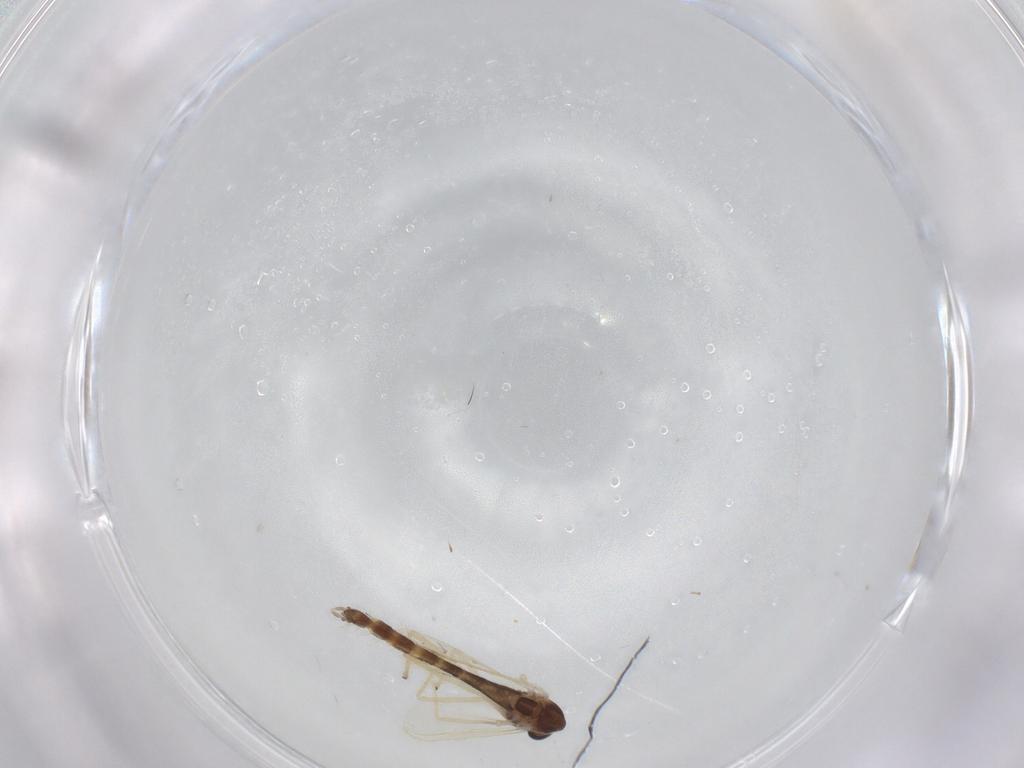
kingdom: Animalia
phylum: Arthropoda
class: Insecta
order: Diptera
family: Chironomidae
